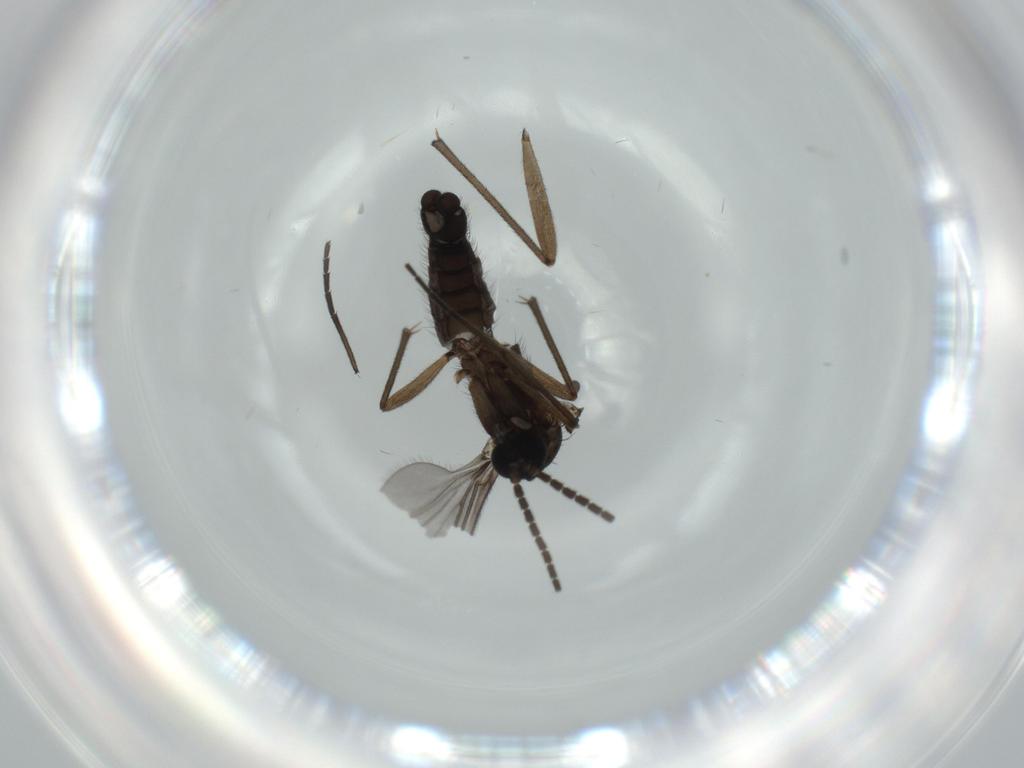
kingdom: Animalia
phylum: Arthropoda
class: Insecta
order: Diptera
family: Sciaridae
